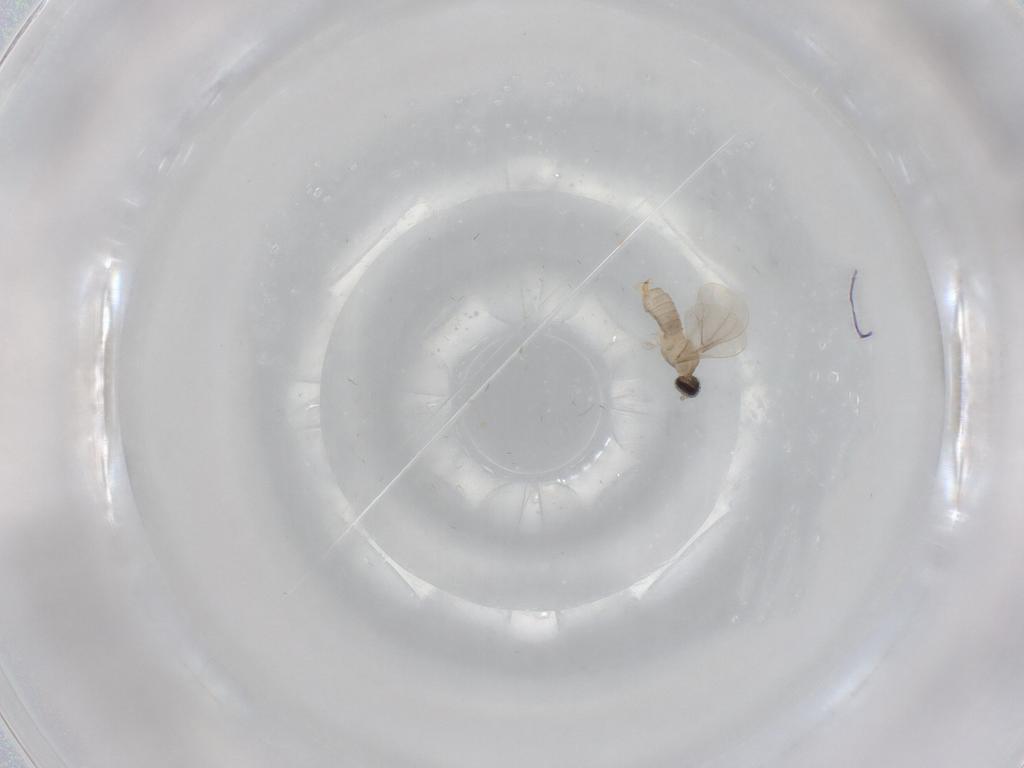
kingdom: Animalia
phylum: Arthropoda
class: Insecta
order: Diptera
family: Cecidomyiidae
